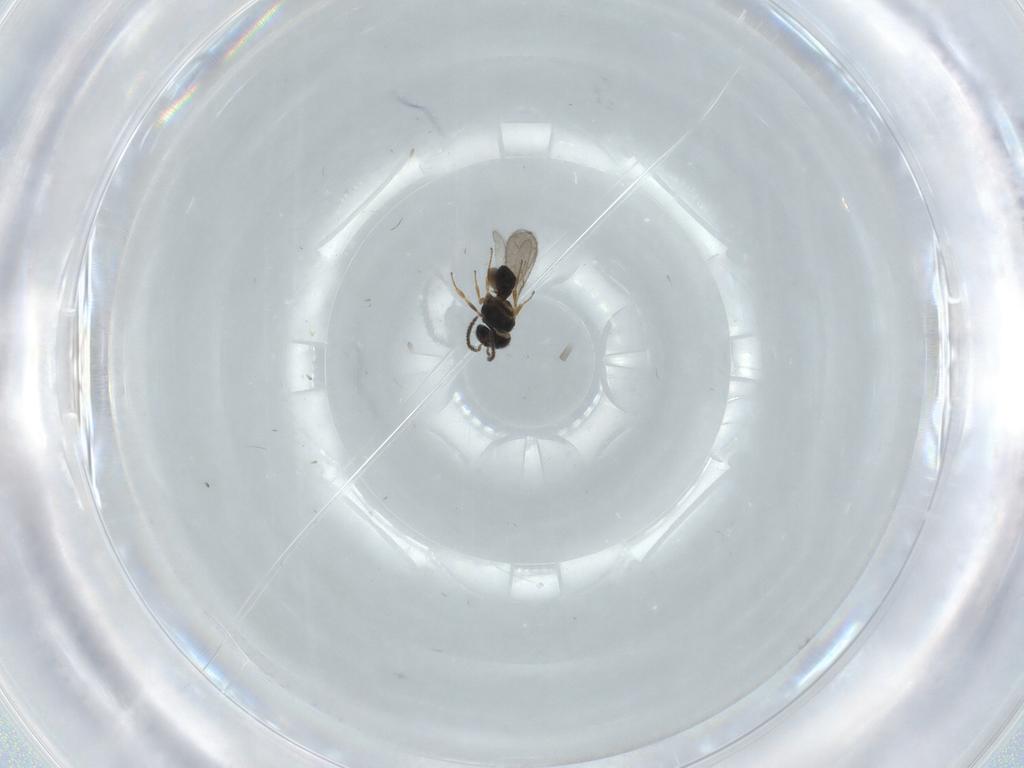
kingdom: Animalia
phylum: Arthropoda
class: Insecta
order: Hymenoptera
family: Scelionidae
